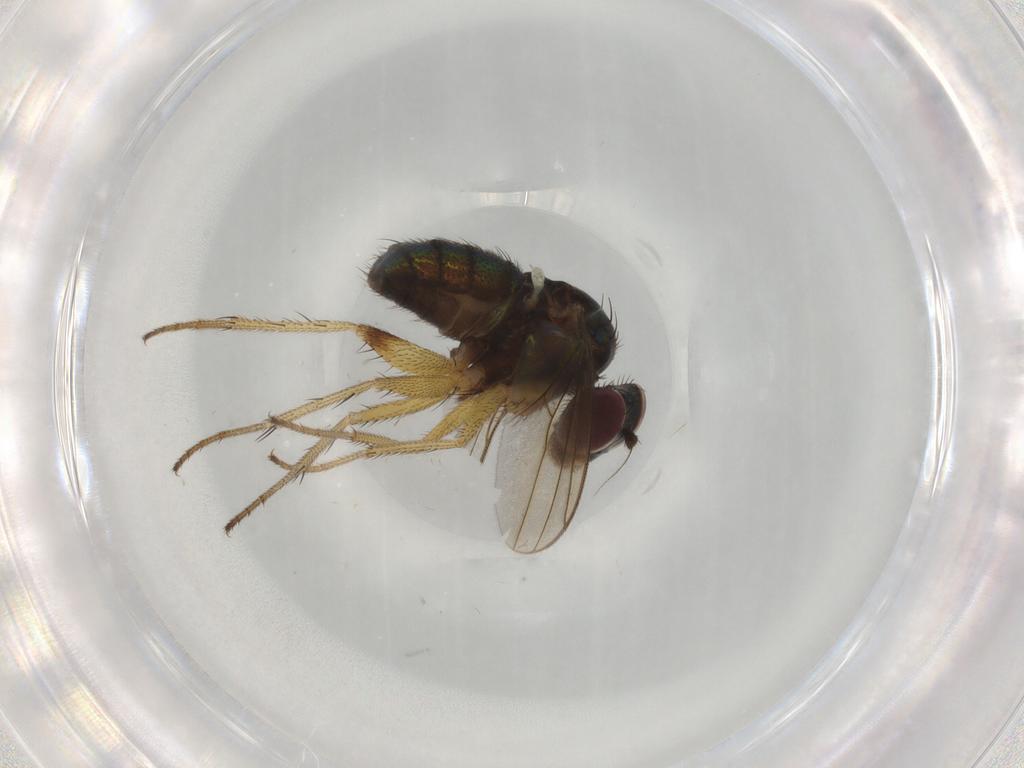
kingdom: Animalia
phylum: Arthropoda
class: Insecta
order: Diptera
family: Dolichopodidae
